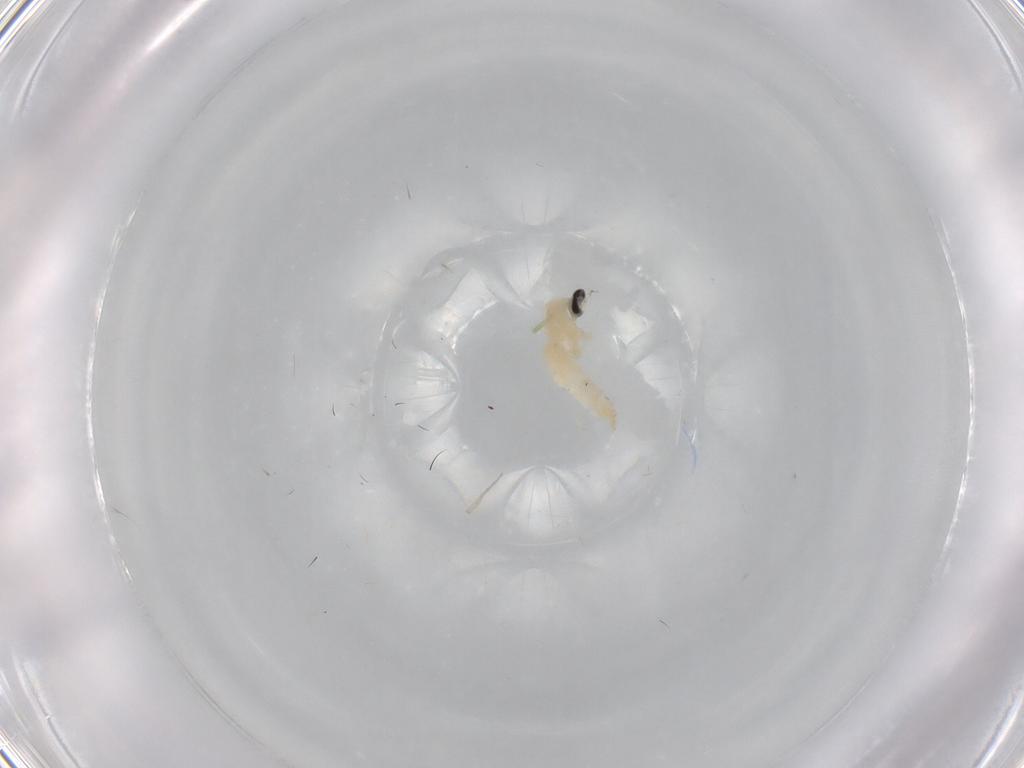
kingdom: Animalia
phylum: Arthropoda
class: Insecta
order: Diptera
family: Cecidomyiidae
